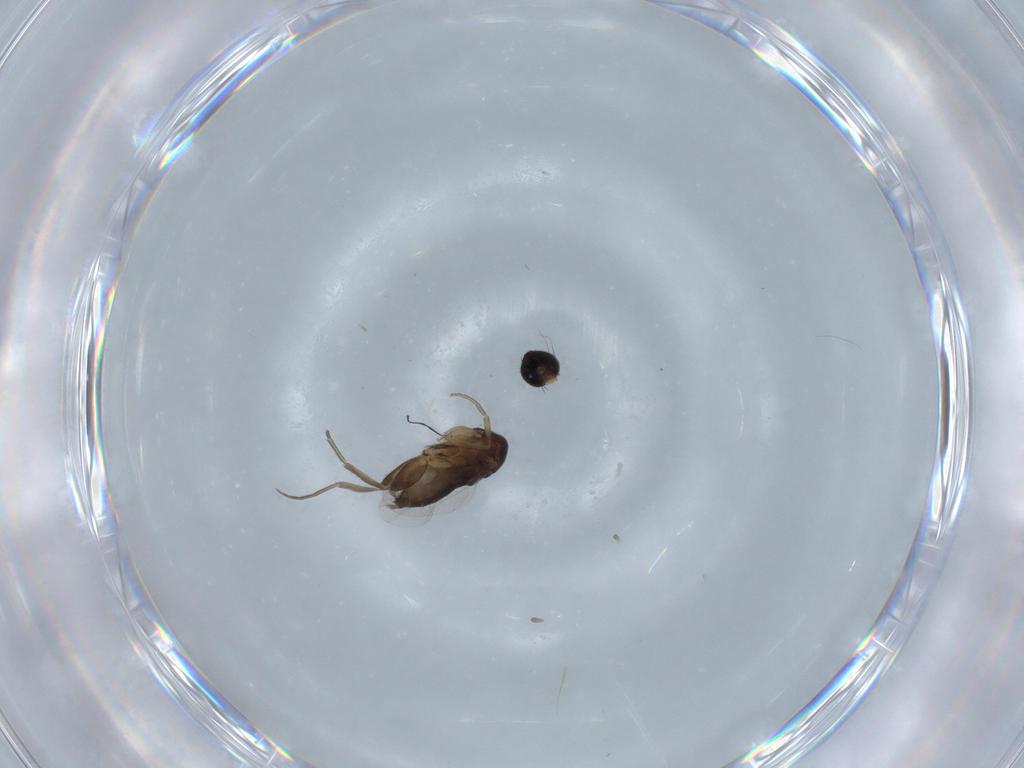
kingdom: Animalia
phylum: Arthropoda
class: Insecta
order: Diptera
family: Phoridae
